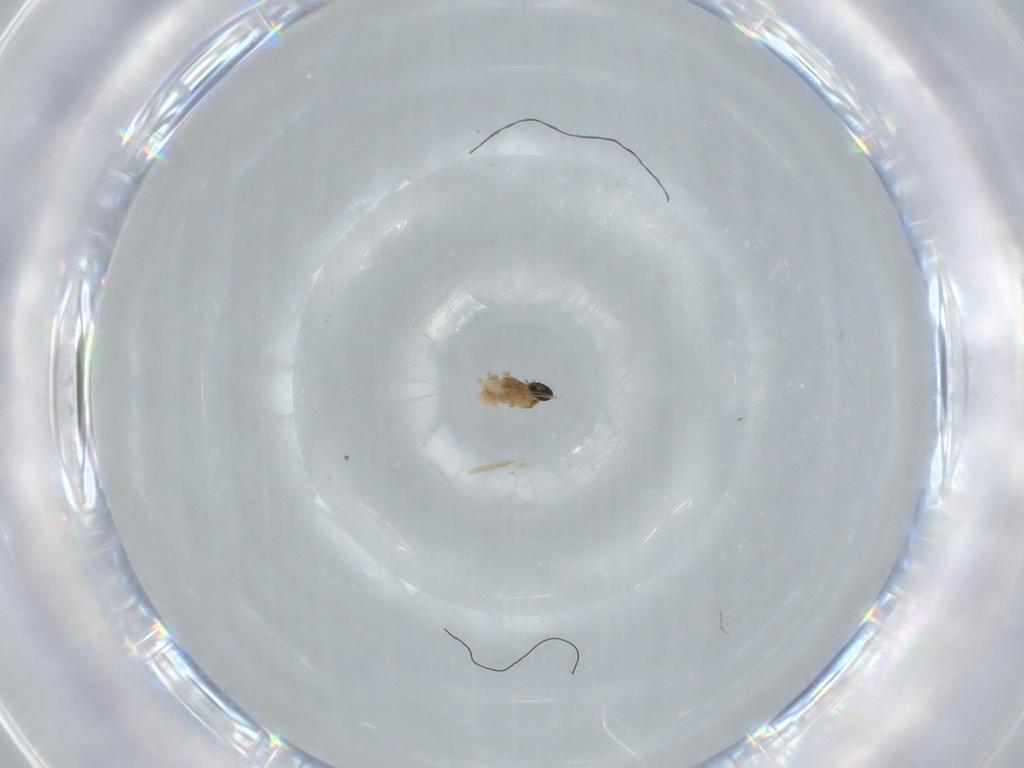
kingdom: Animalia
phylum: Arthropoda
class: Insecta
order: Diptera
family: Cecidomyiidae
